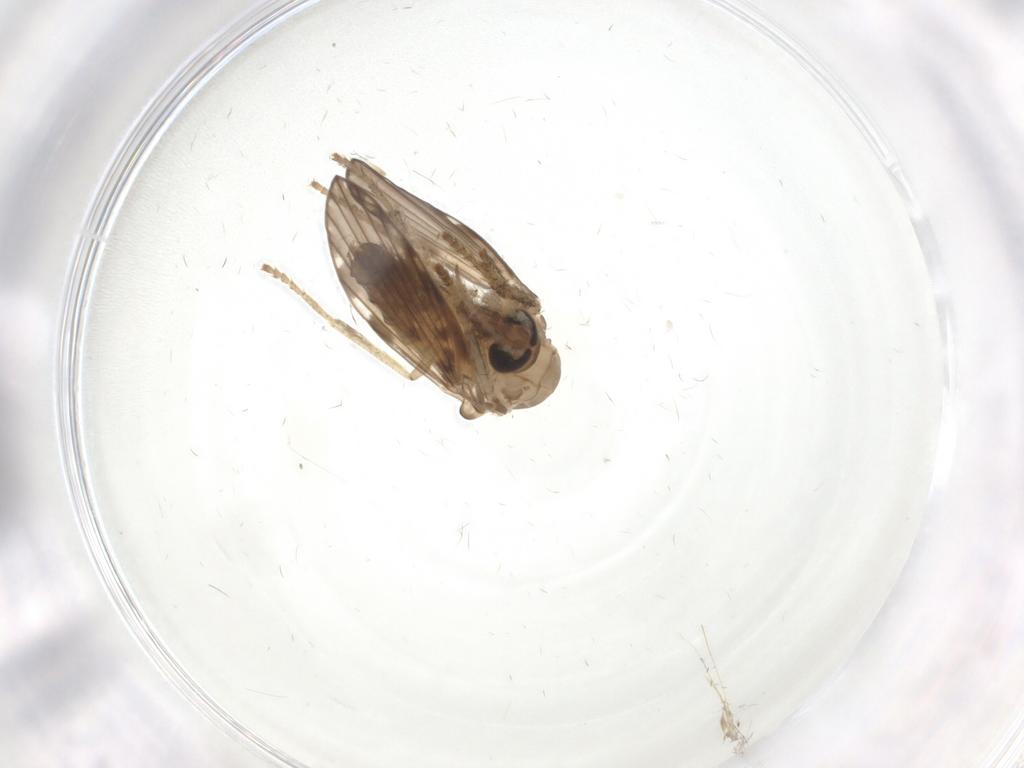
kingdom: Animalia
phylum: Arthropoda
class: Insecta
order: Diptera
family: Psychodidae
